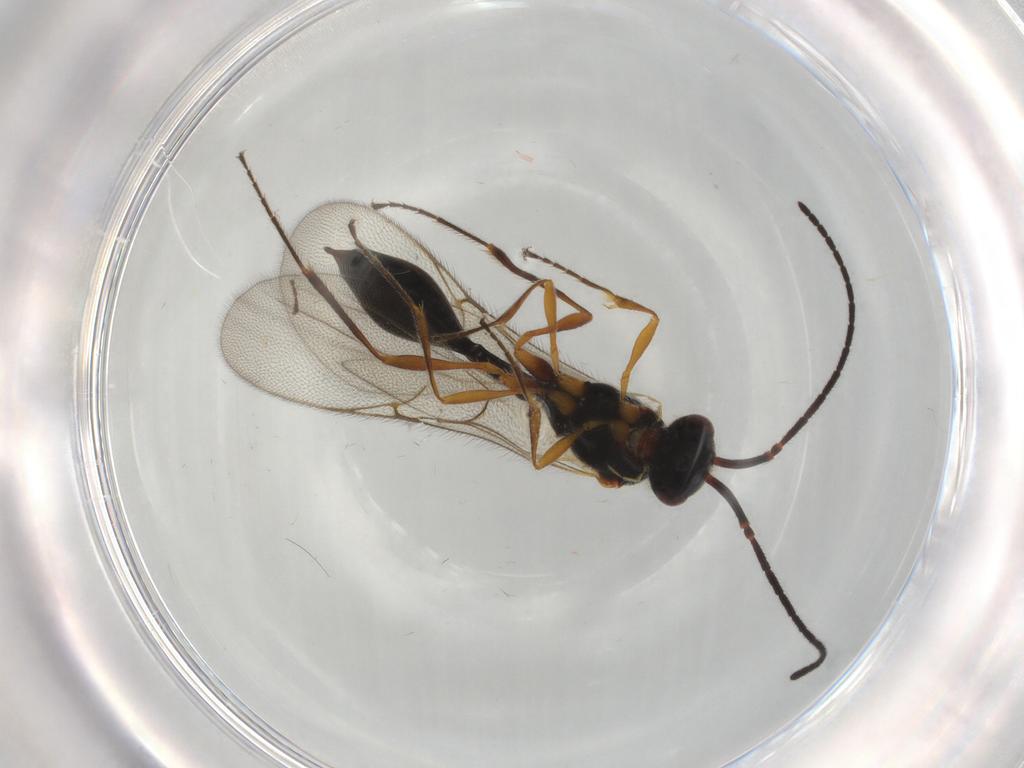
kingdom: Animalia
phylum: Arthropoda
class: Insecta
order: Hymenoptera
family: Diapriidae
